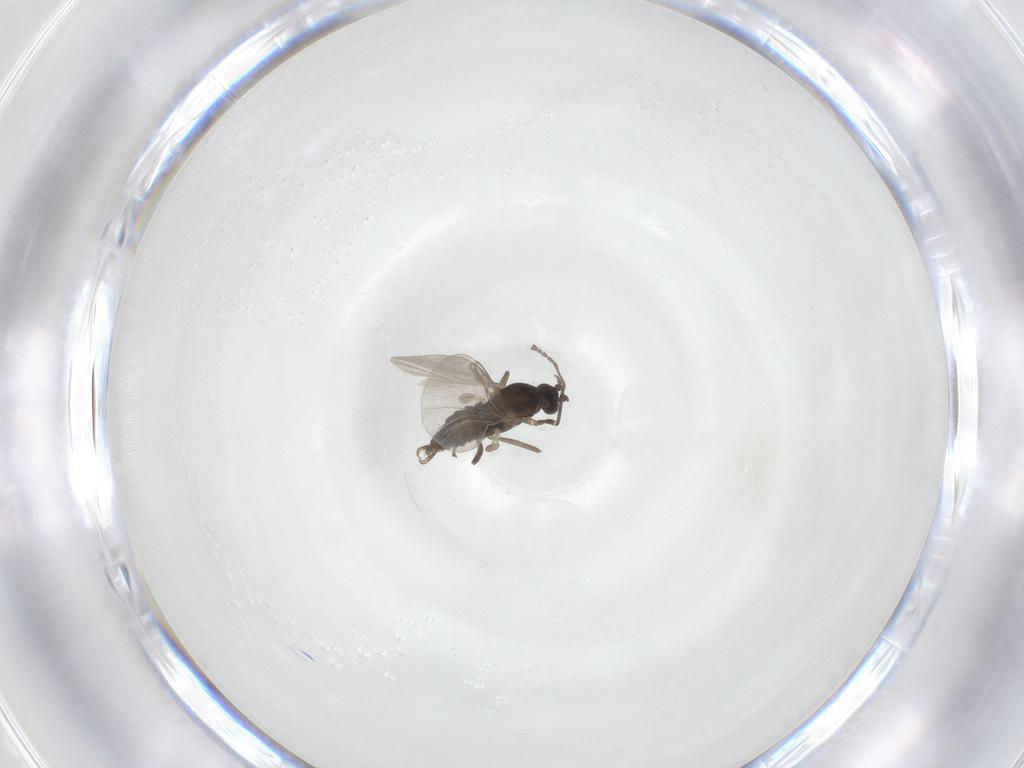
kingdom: Animalia
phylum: Arthropoda
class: Insecta
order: Diptera
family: Cecidomyiidae
